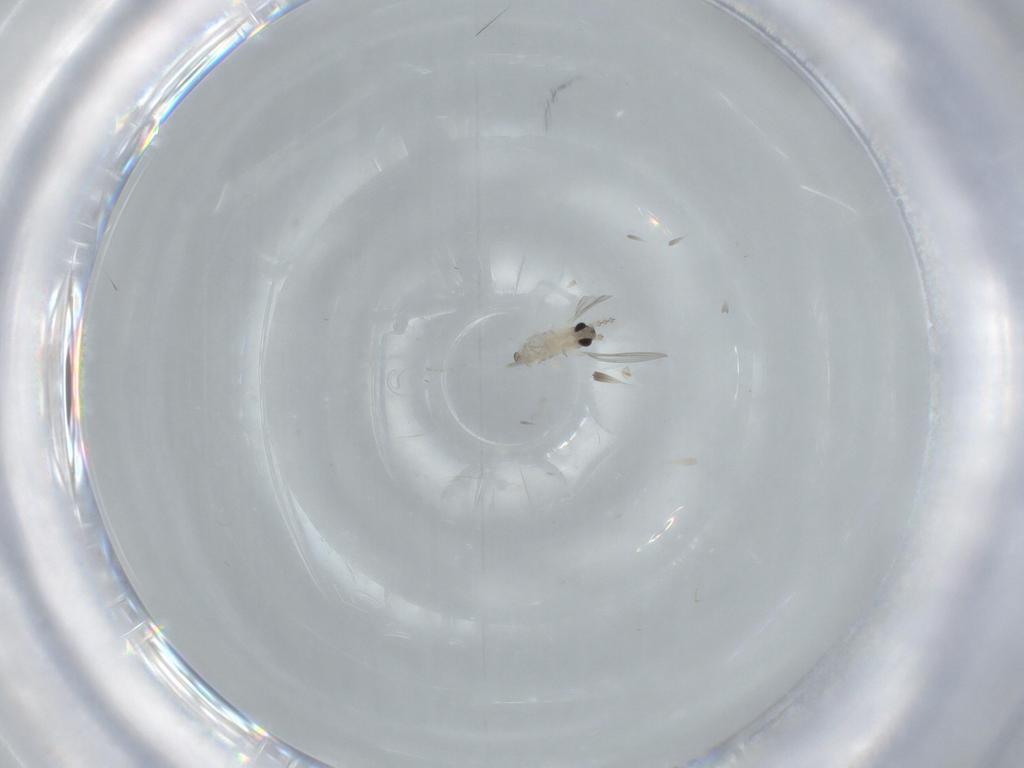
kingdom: Animalia
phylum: Arthropoda
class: Insecta
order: Diptera
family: Cecidomyiidae
